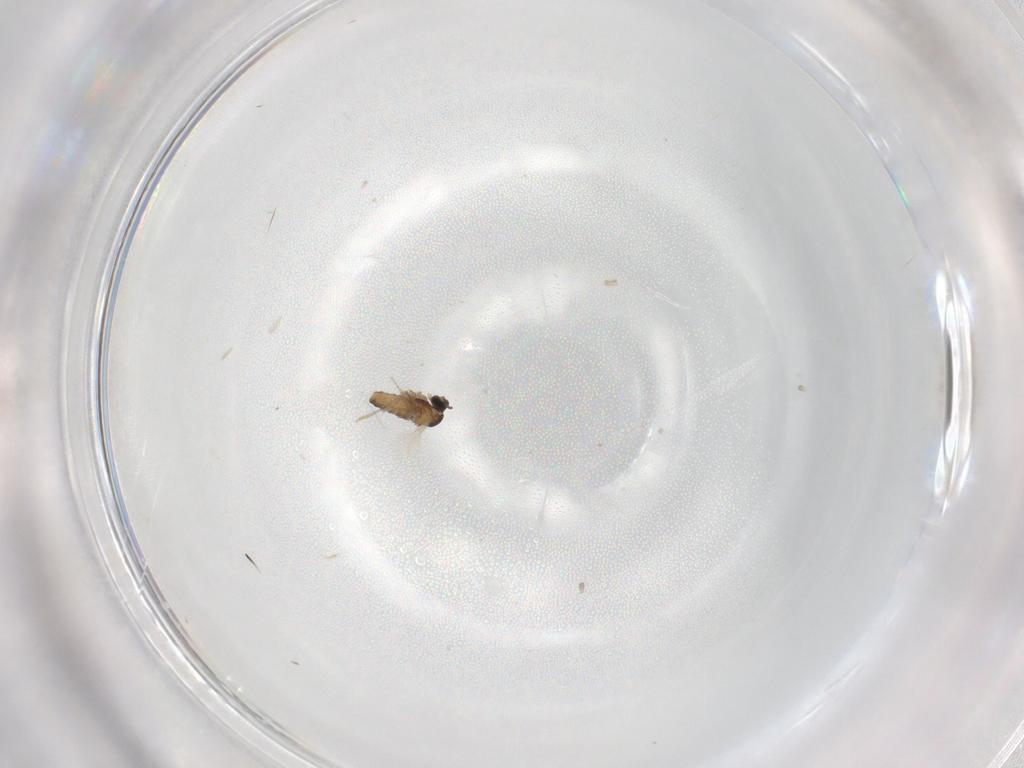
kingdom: Animalia
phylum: Arthropoda
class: Insecta
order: Diptera
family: Cecidomyiidae
